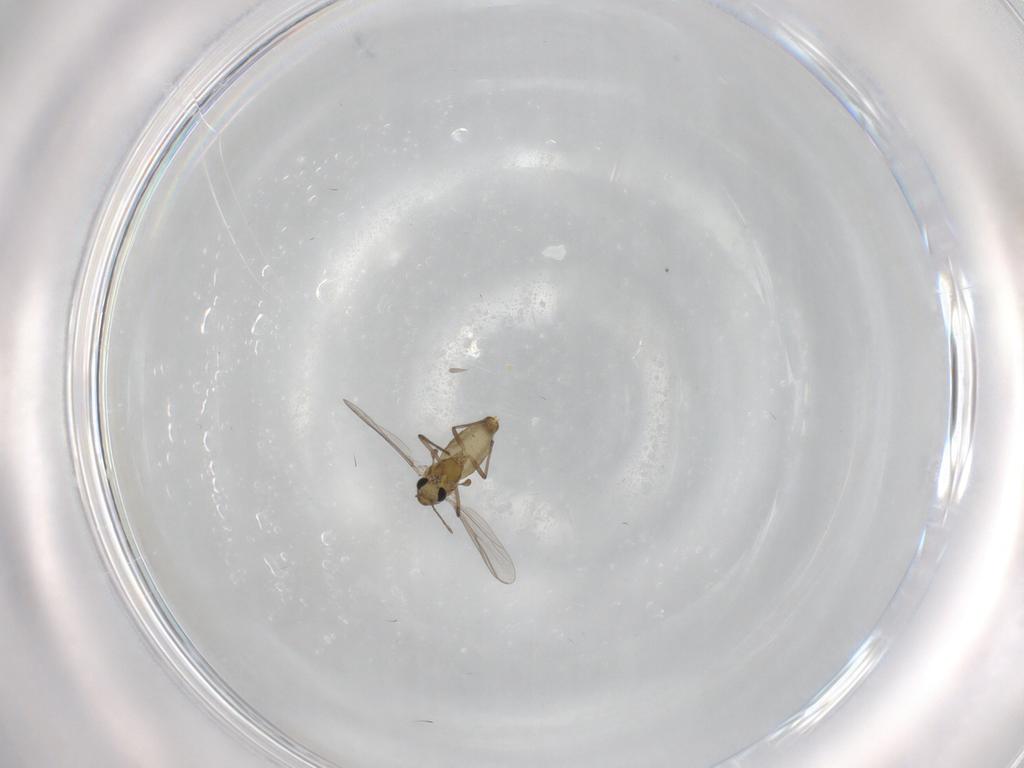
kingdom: Animalia
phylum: Arthropoda
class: Insecta
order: Diptera
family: Chironomidae
